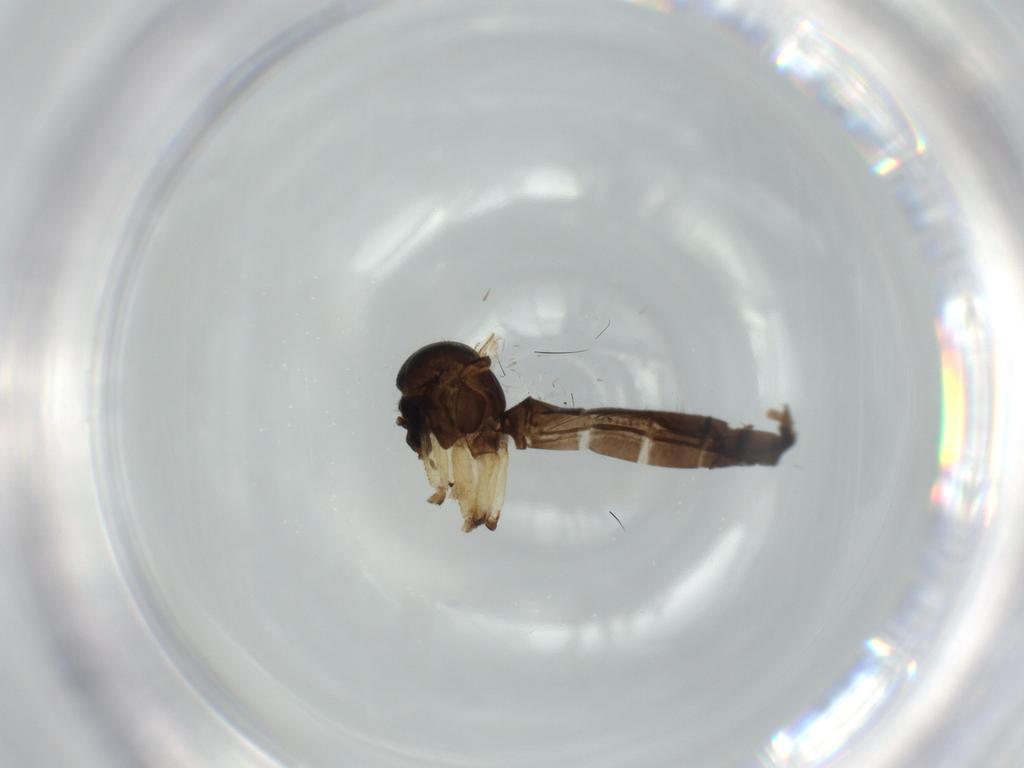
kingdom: Animalia
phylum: Arthropoda
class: Insecta
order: Diptera
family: Mycetophilidae
